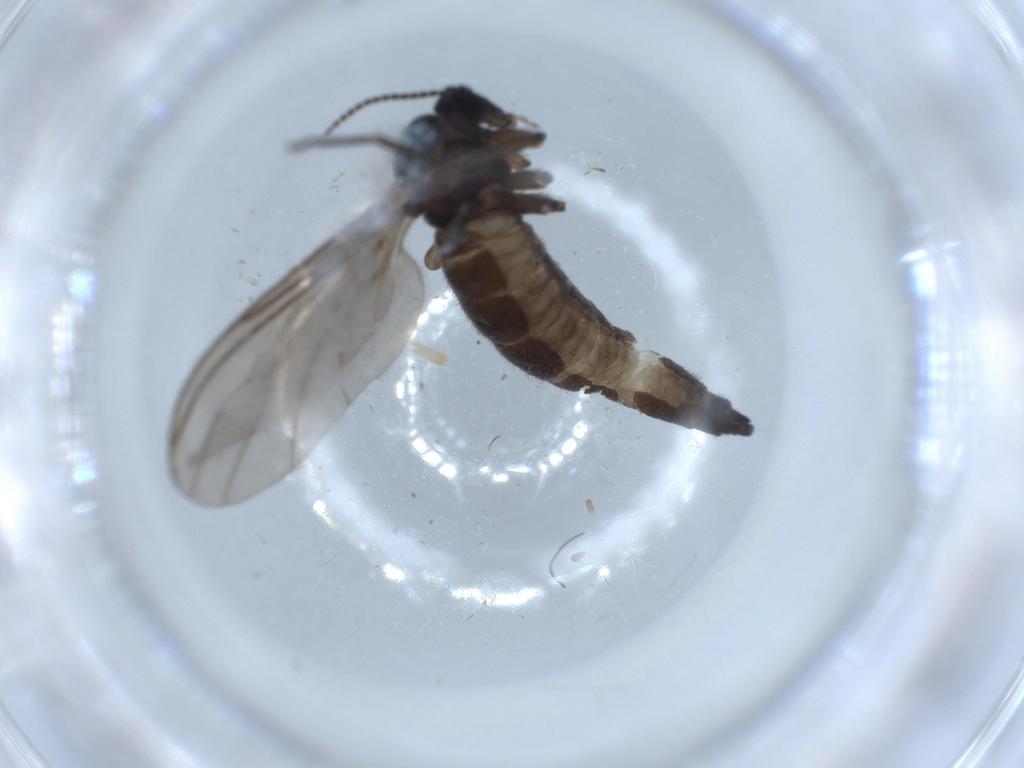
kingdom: Animalia
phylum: Arthropoda
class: Insecta
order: Diptera
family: Sciaridae
